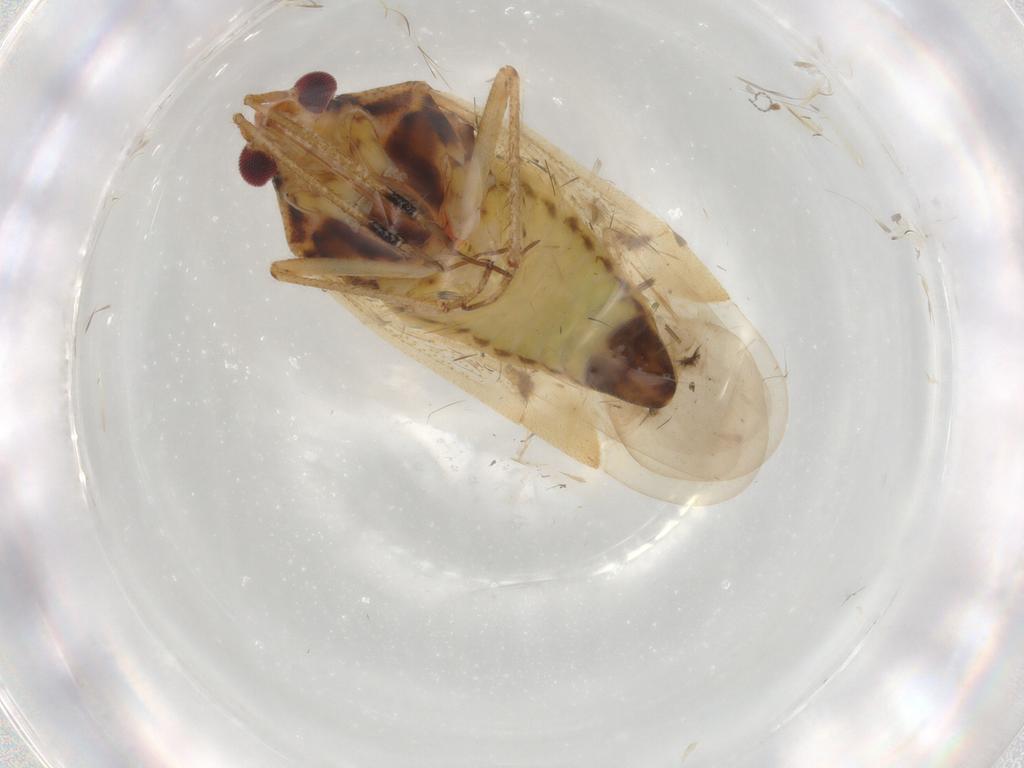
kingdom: Animalia
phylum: Arthropoda
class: Insecta
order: Hemiptera
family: Miridae
